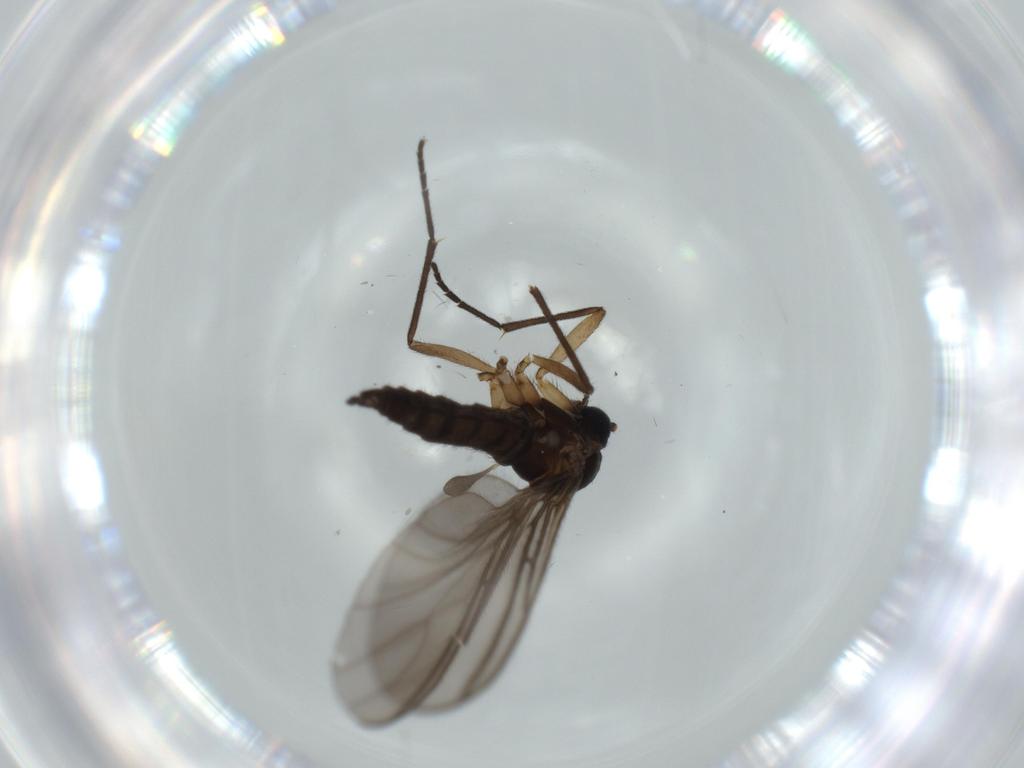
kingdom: Animalia
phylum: Arthropoda
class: Insecta
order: Diptera
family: Sciaridae
